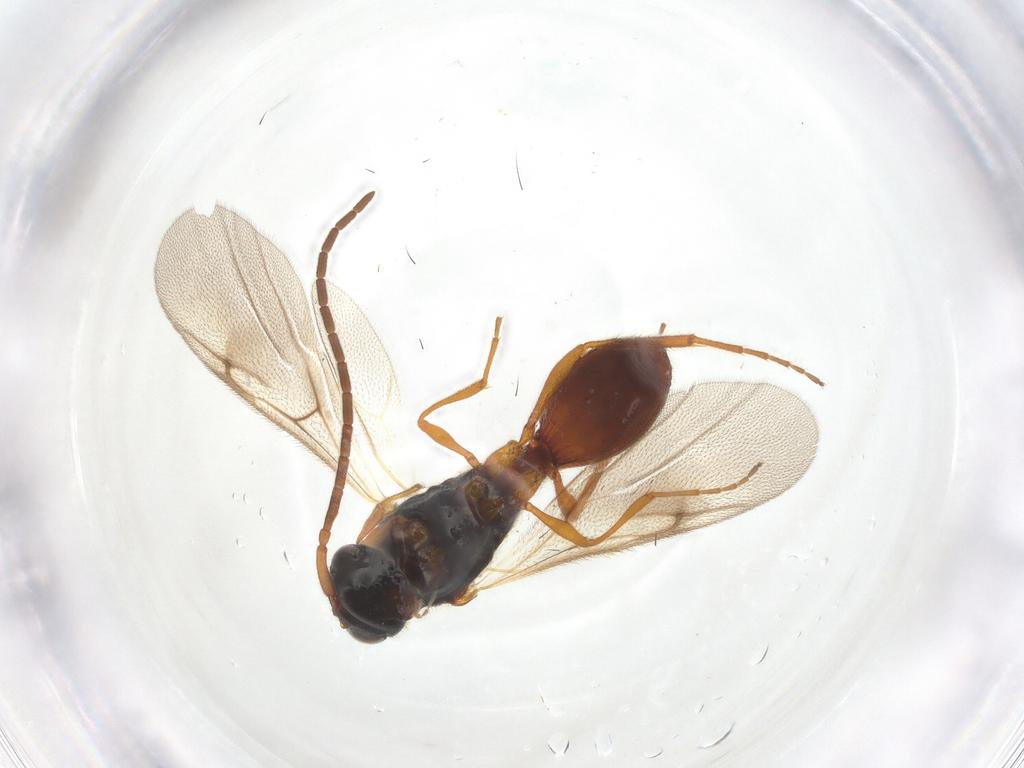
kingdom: Animalia
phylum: Arthropoda
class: Insecta
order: Hymenoptera
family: Diapriidae
